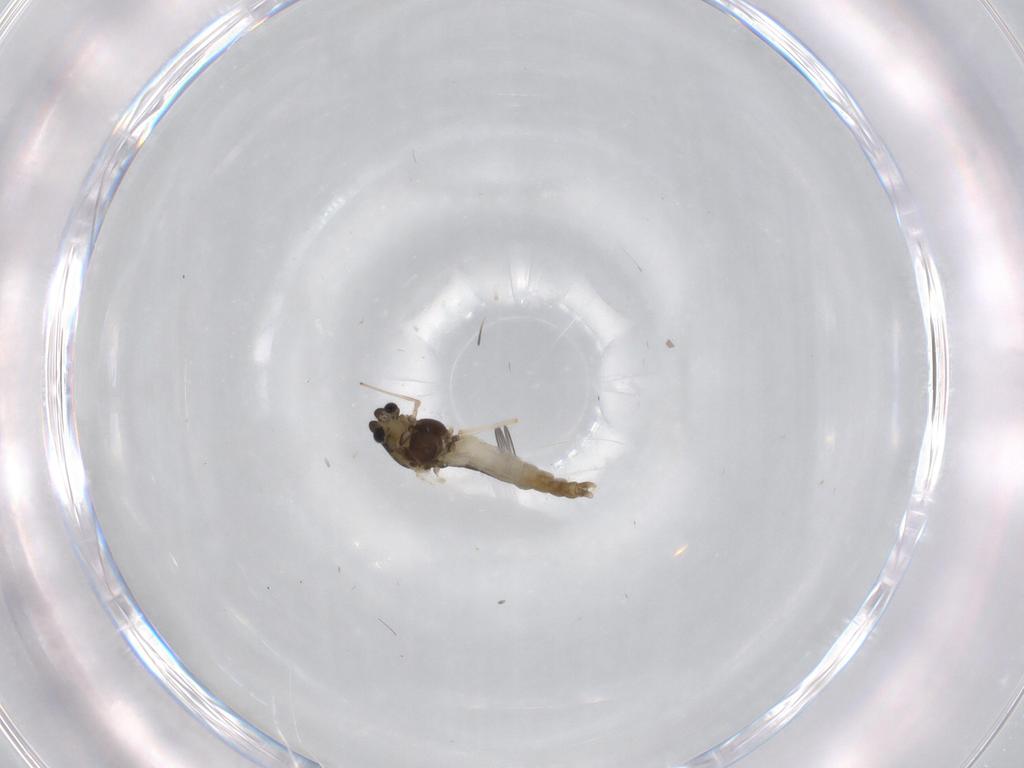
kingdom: Animalia
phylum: Arthropoda
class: Insecta
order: Diptera
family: Chironomidae
